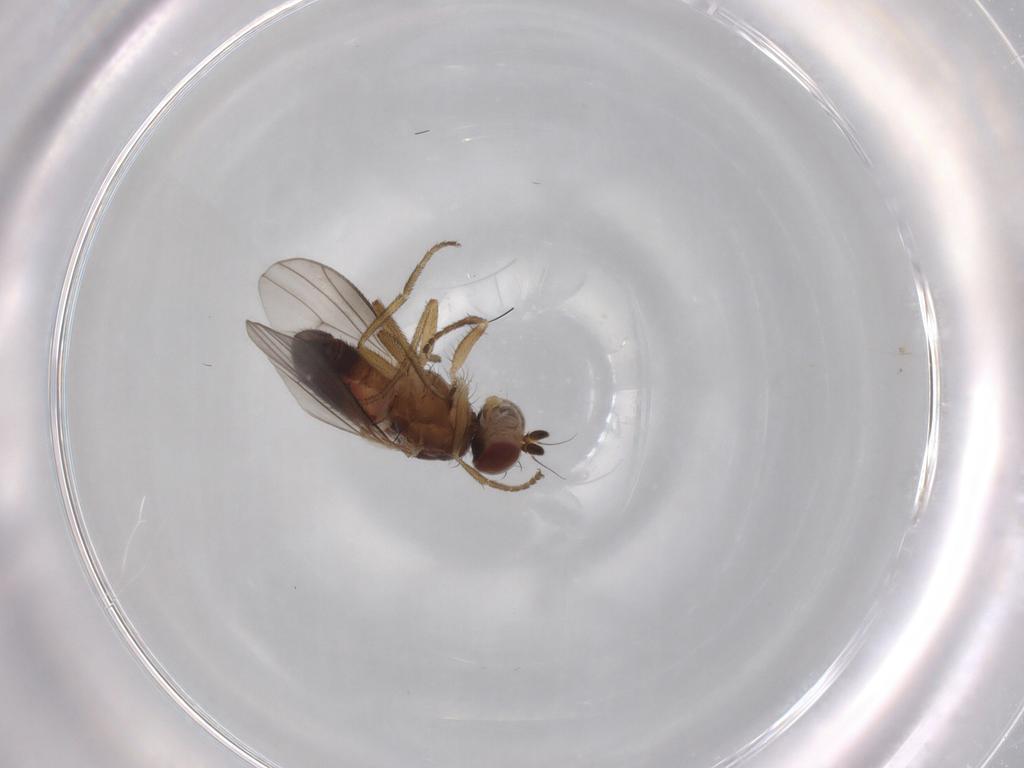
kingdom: Animalia
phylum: Arthropoda
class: Insecta
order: Diptera
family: Heleomyzidae
